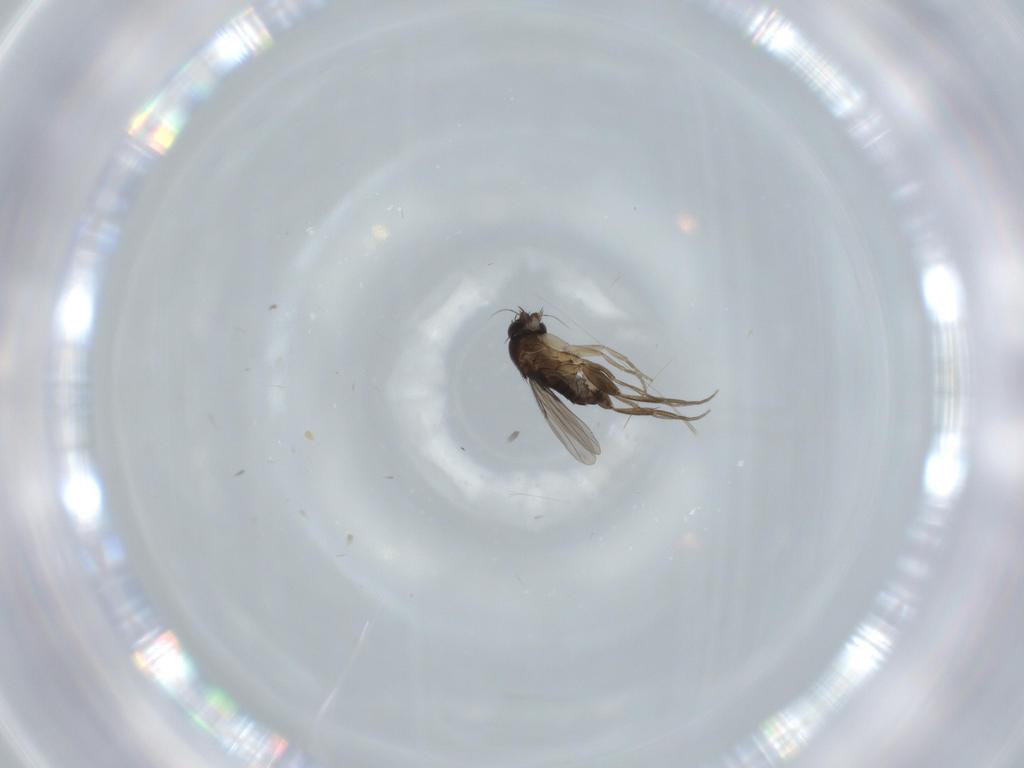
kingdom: Animalia
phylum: Arthropoda
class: Insecta
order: Diptera
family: Phoridae
